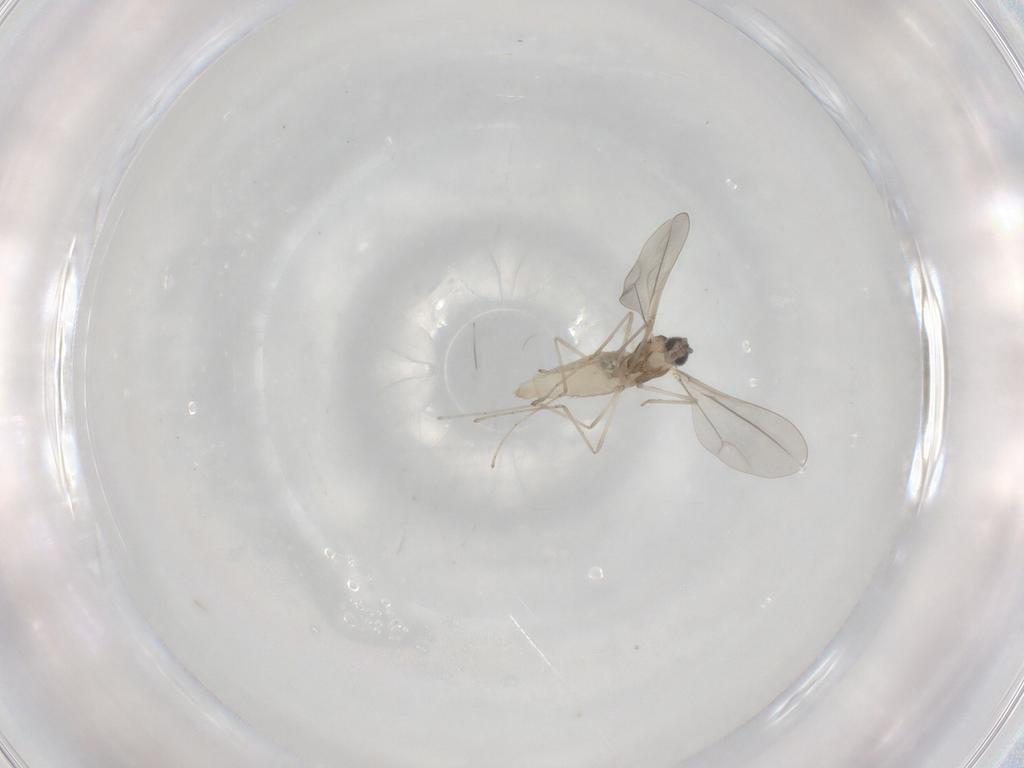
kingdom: Animalia
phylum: Arthropoda
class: Insecta
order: Diptera
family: Cecidomyiidae
